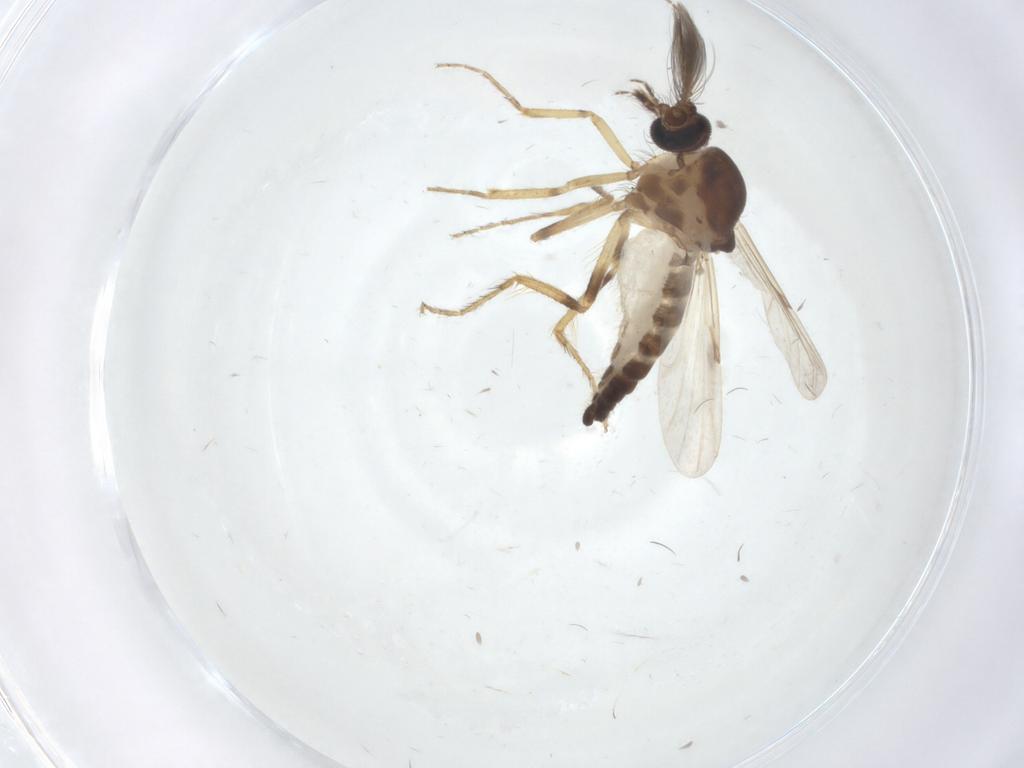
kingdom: Animalia
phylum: Arthropoda
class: Insecta
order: Diptera
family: Ceratopogonidae
